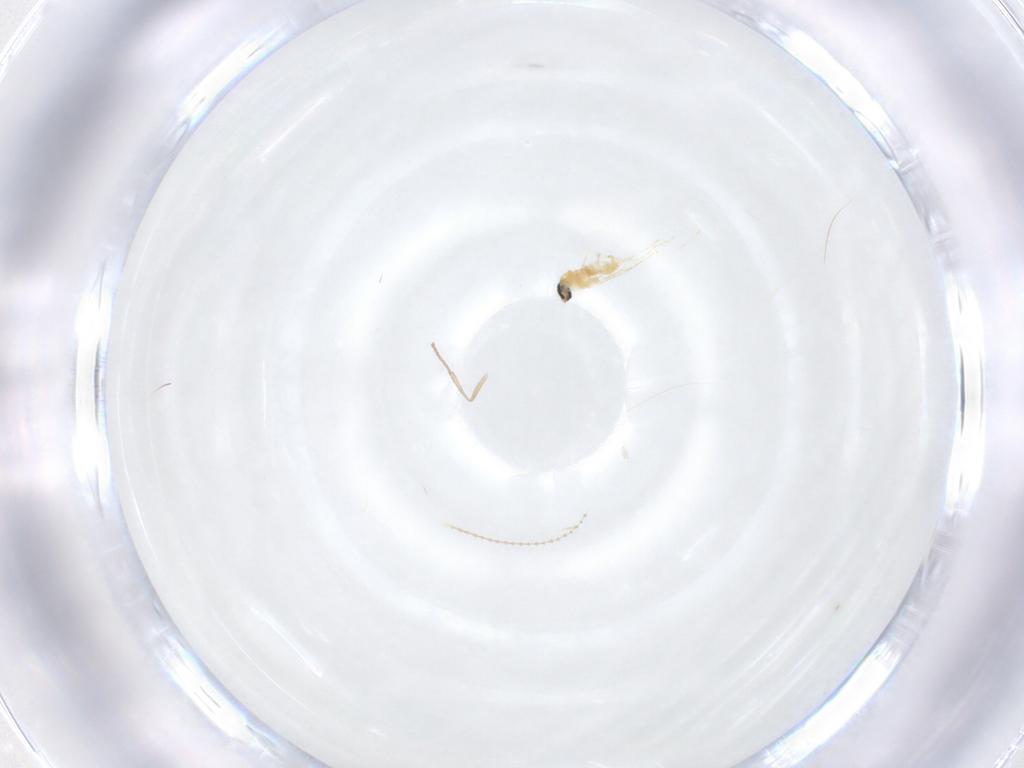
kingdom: Animalia
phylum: Arthropoda
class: Insecta
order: Diptera
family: Cecidomyiidae
